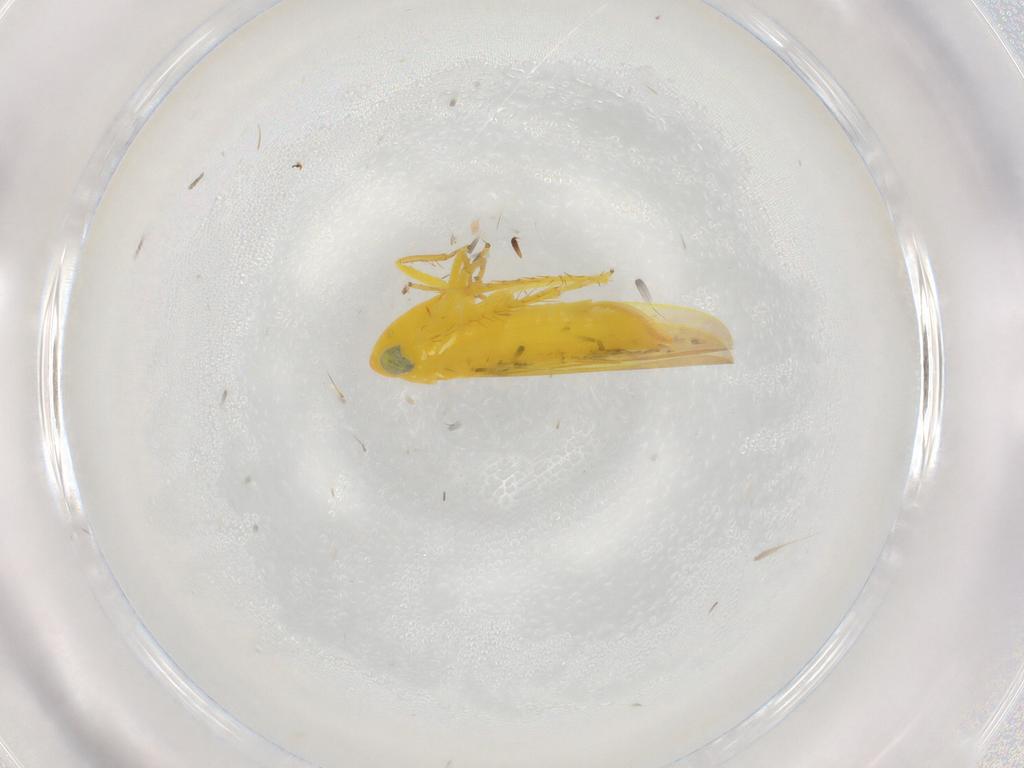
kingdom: Animalia
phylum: Arthropoda
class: Insecta
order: Hemiptera
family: Cicadellidae
